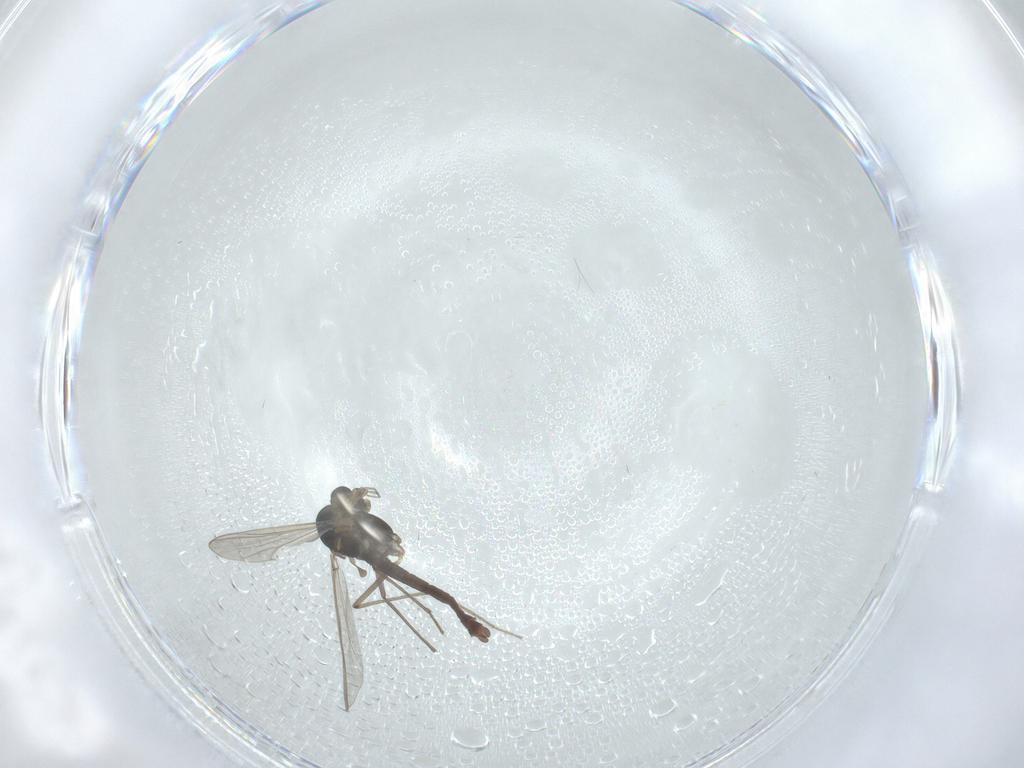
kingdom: Animalia
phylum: Arthropoda
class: Insecta
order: Diptera
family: Chironomidae
